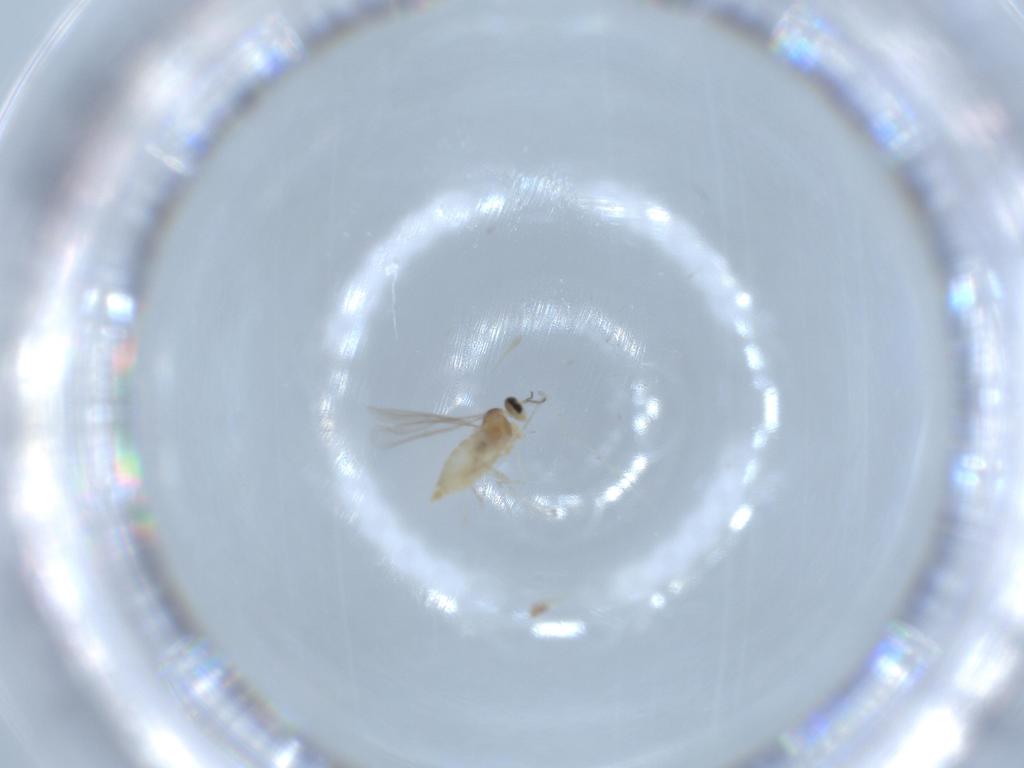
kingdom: Animalia
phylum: Arthropoda
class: Insecta
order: Diptera
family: Cecidomyiidae
